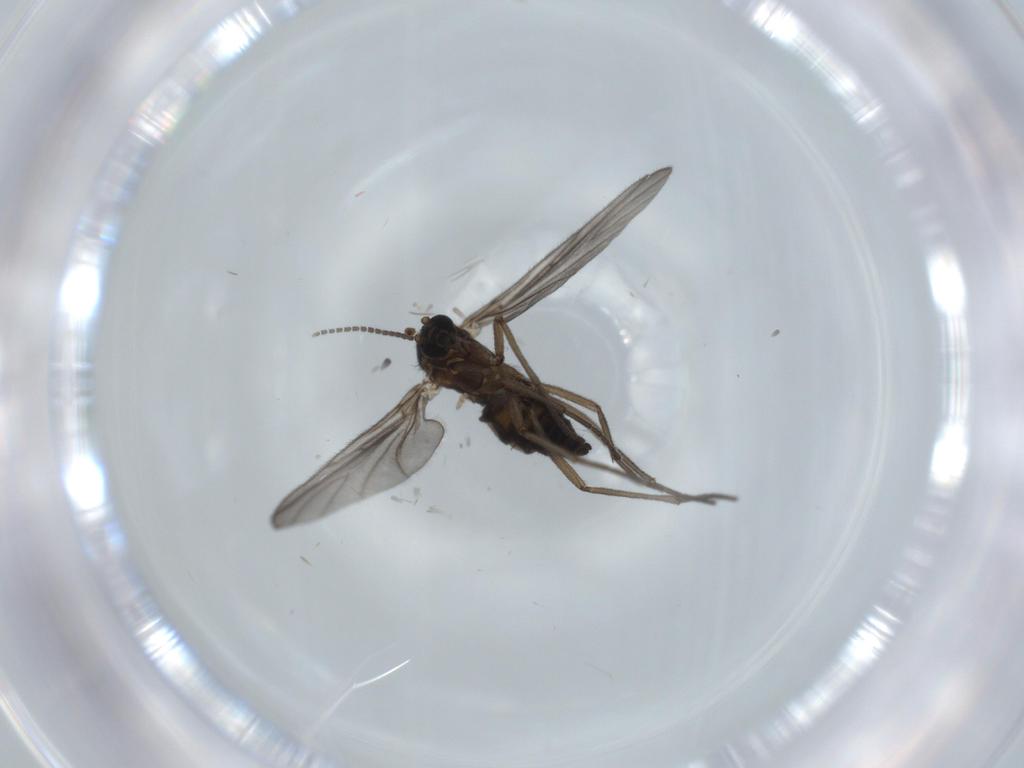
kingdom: Animalia
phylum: Arthropoda
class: Insecta
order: Diptera
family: Sciaridae
